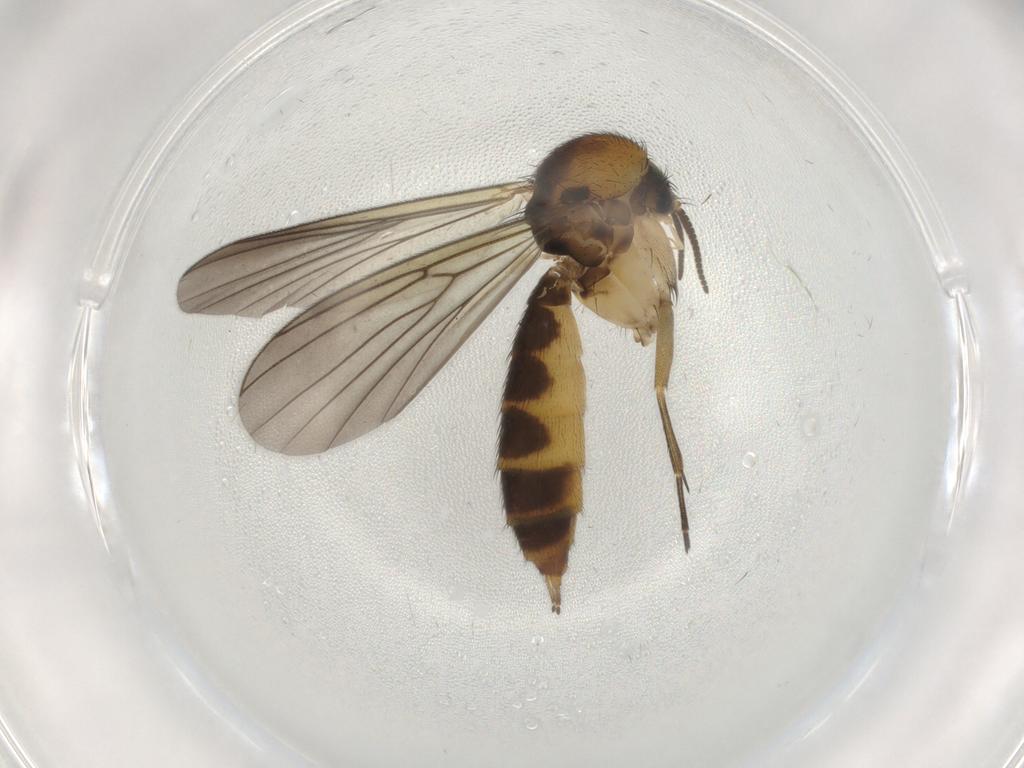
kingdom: Animalia
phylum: Arthropoda
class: Insecta
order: Diptera
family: Mycetophilidae
